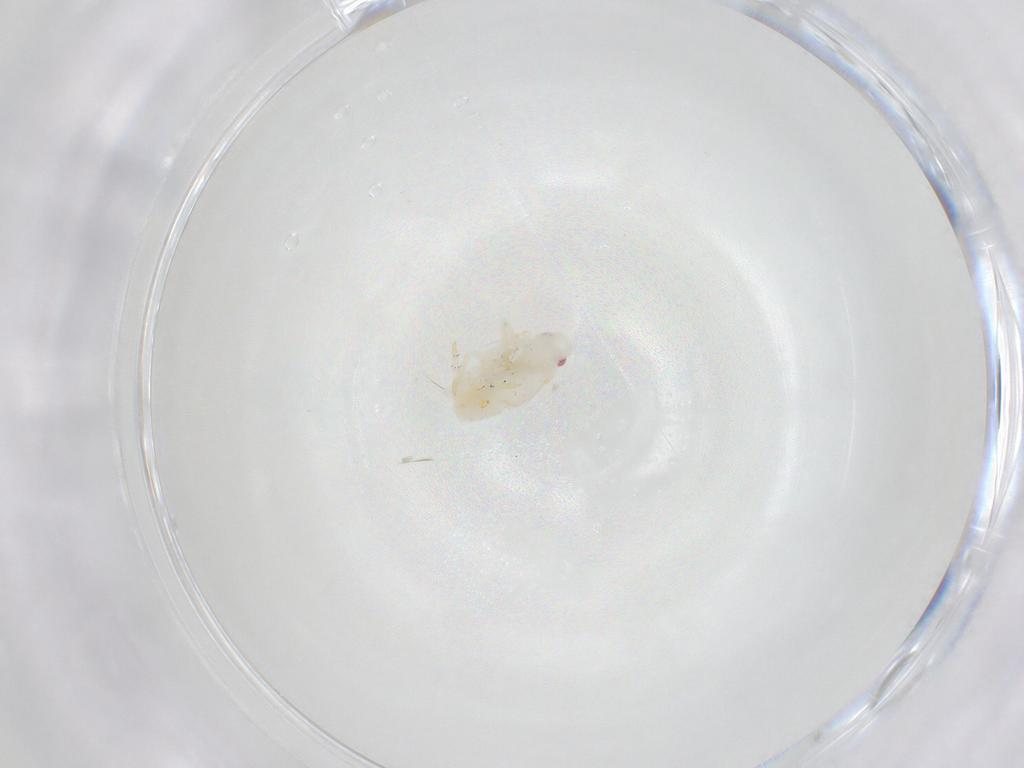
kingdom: Animalia
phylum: Arthropoda
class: Insecta
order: Hemiptera
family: Flatidae
